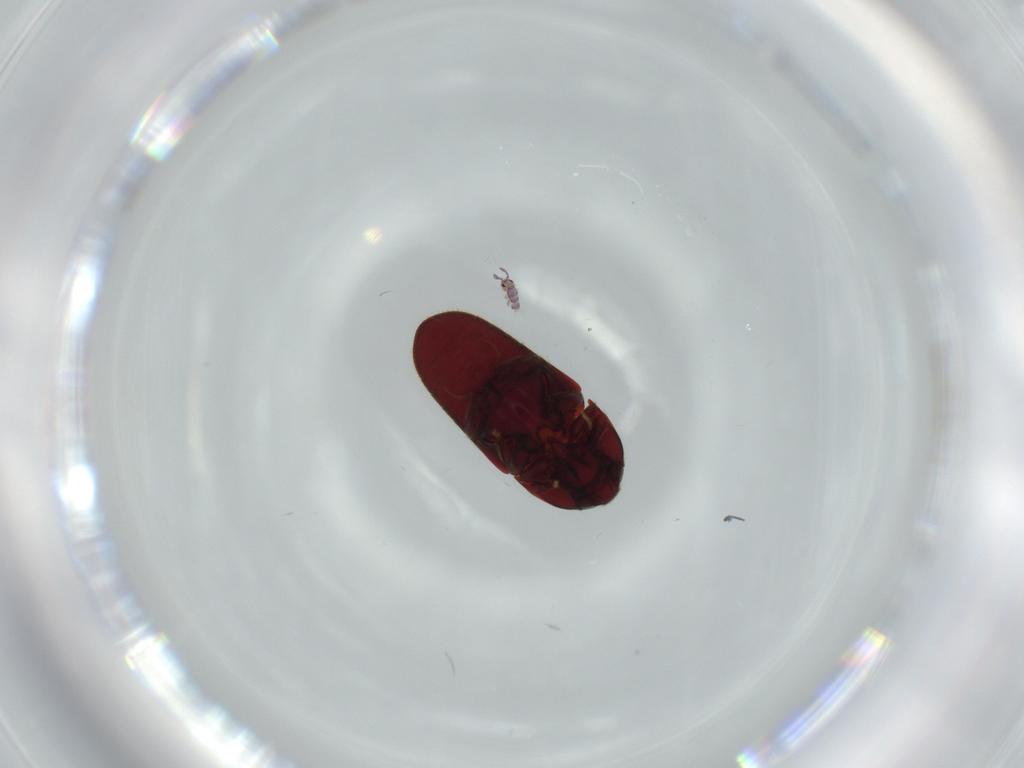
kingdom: Animalia
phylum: Arthropoda
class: Insecta
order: Coleoptera
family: Throscidae
